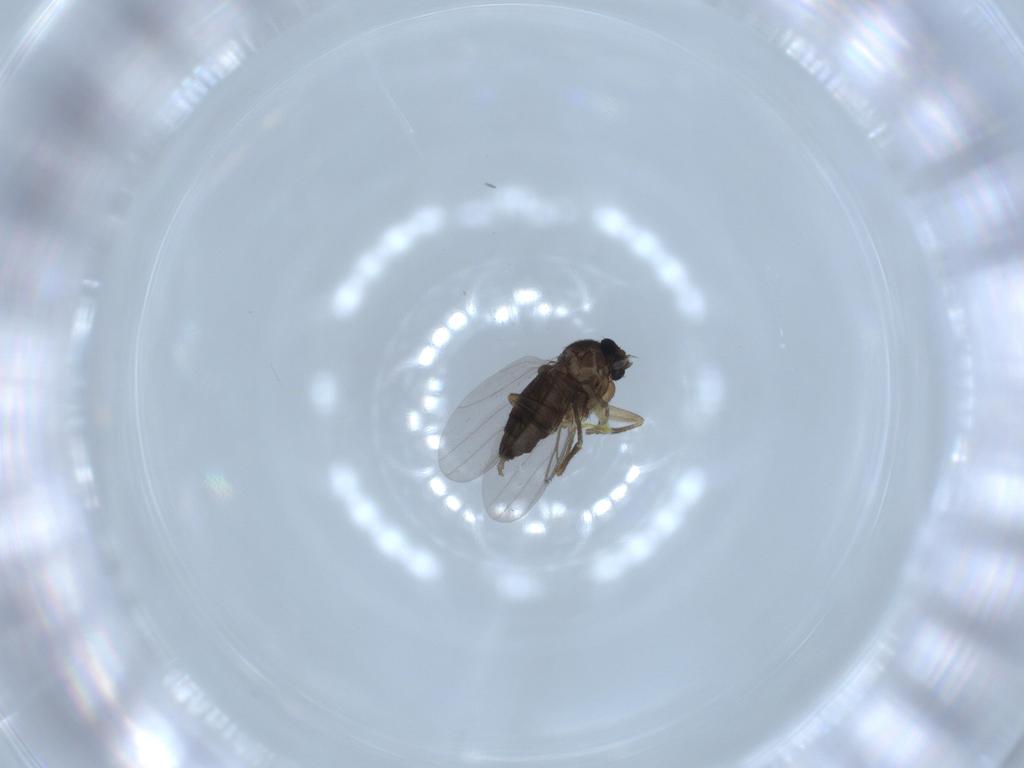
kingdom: Animalia
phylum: Arthropoda
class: Insecta
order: Diptera
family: Phoridae
